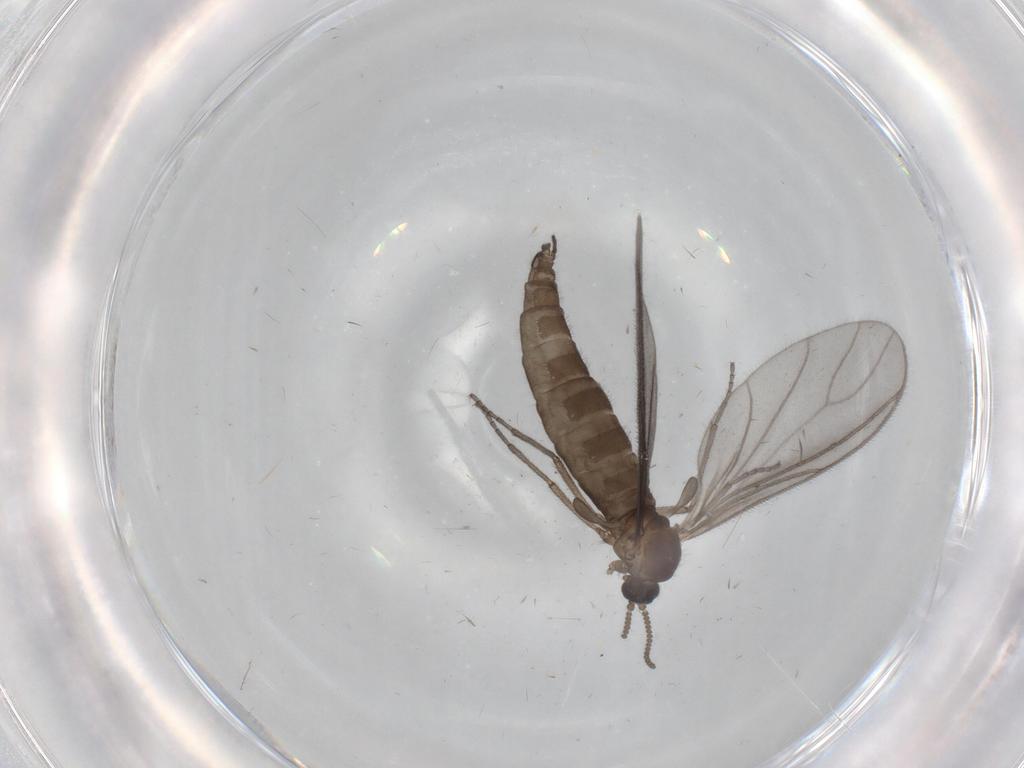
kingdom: Animalia
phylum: Arthropoda
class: Insecta
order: Diptera
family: Sciaridae
